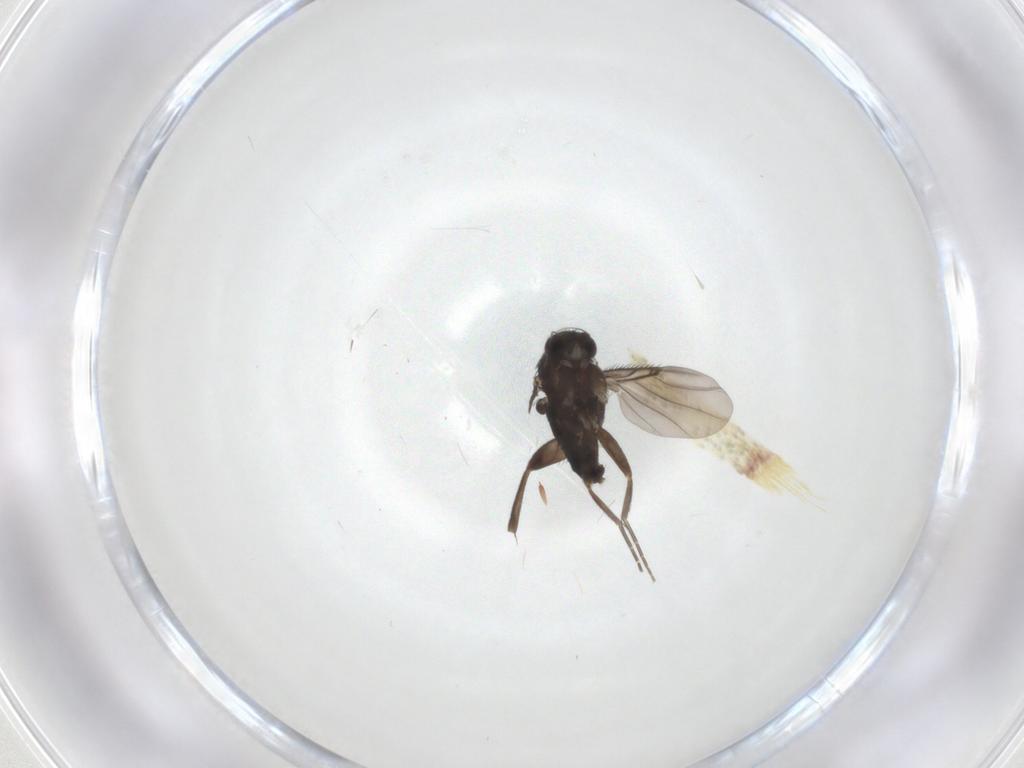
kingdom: Animalia
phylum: Arthropoda
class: Insecta
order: Diptera
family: Phoridae
